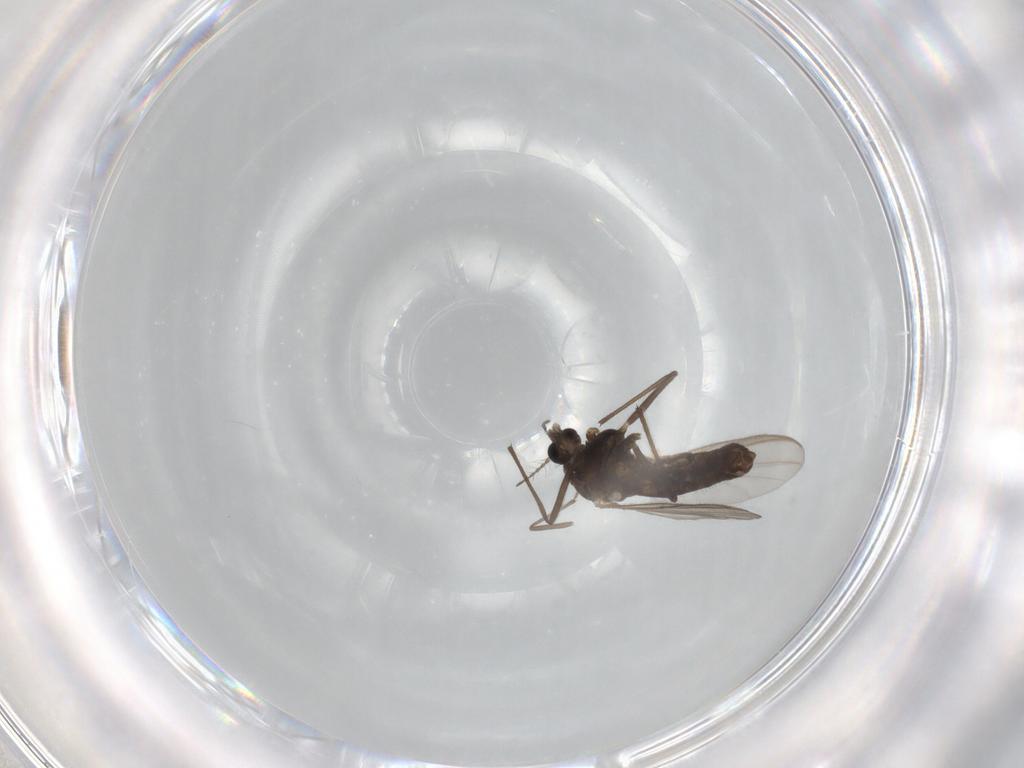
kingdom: Animalia
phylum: Arthropoda
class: Insecta
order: Diptera
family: Chironomidae
